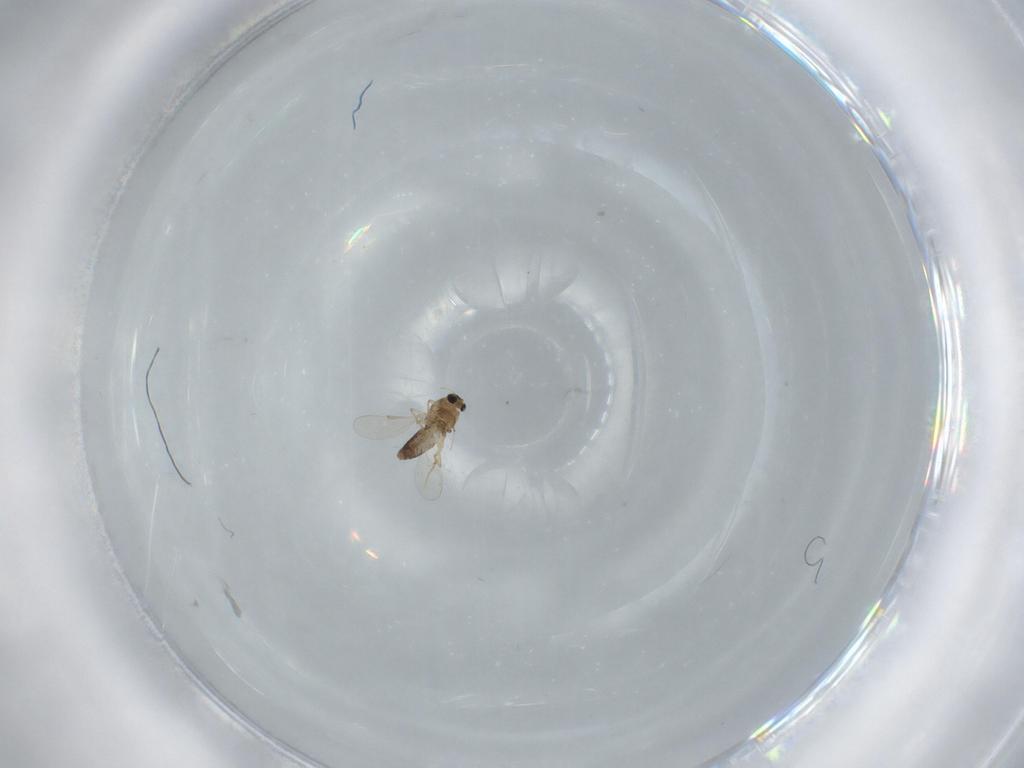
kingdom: Animalia
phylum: Arthropoda
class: Insecta
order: Diptera
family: Chironomidae
